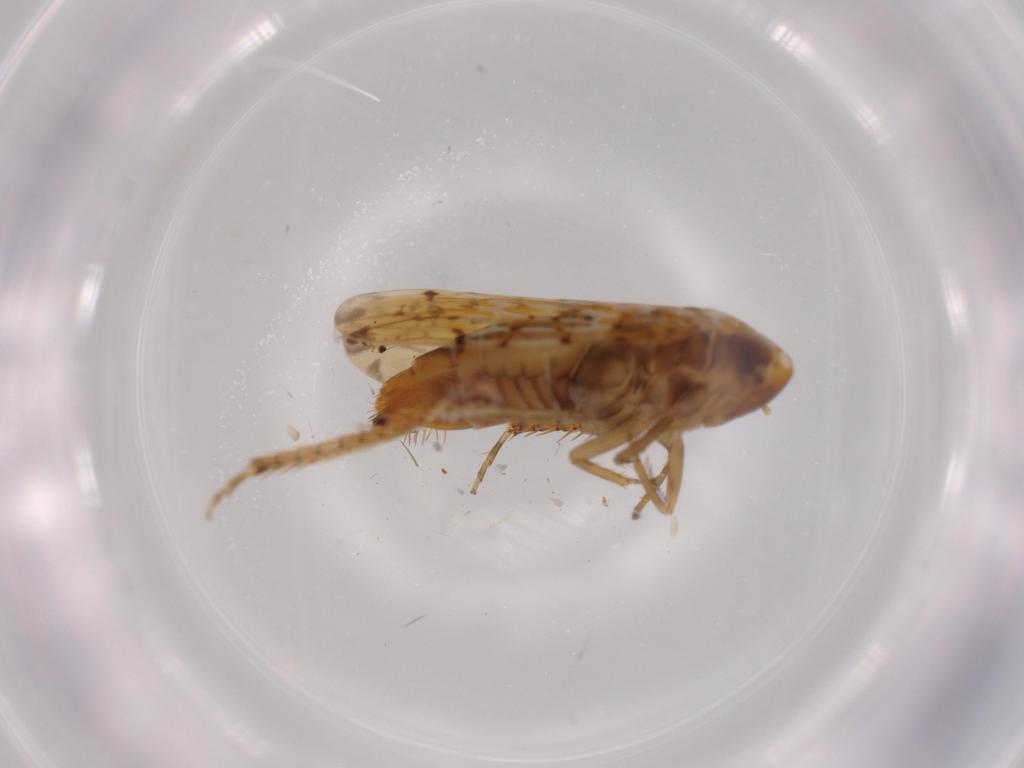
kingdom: Animalia
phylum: Arthropoda
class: Insecta
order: Hemiptera
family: Cicadellidae
